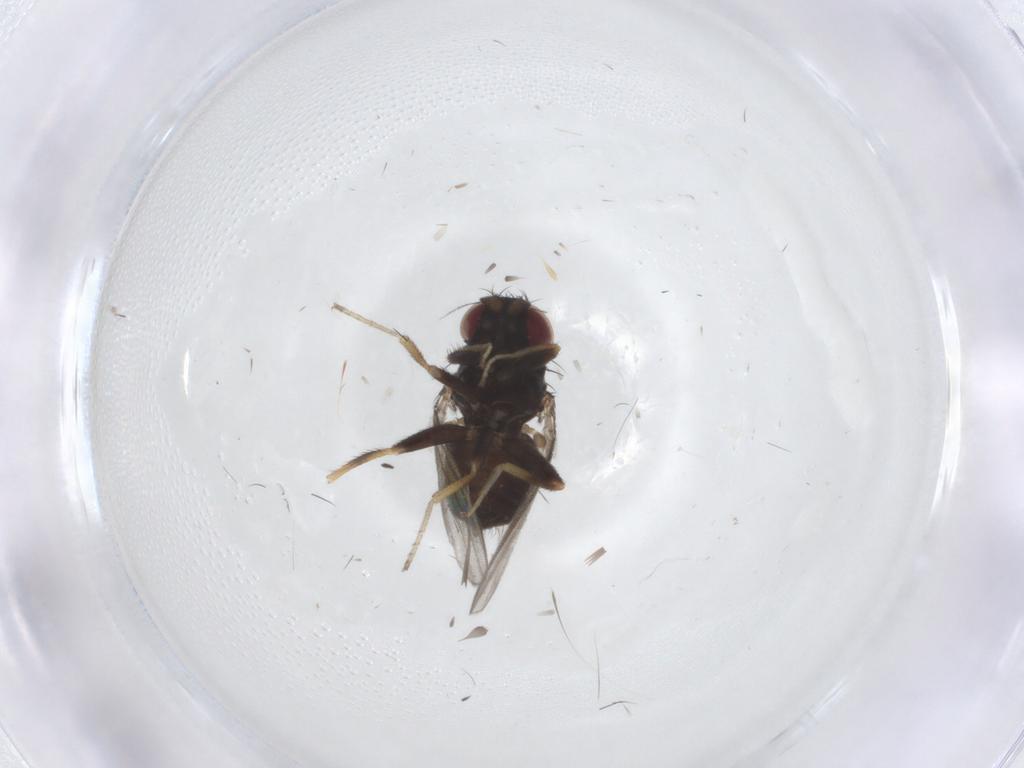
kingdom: Animalia
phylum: Arthropoda
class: Insecta
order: Diptera
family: Milichiidae
